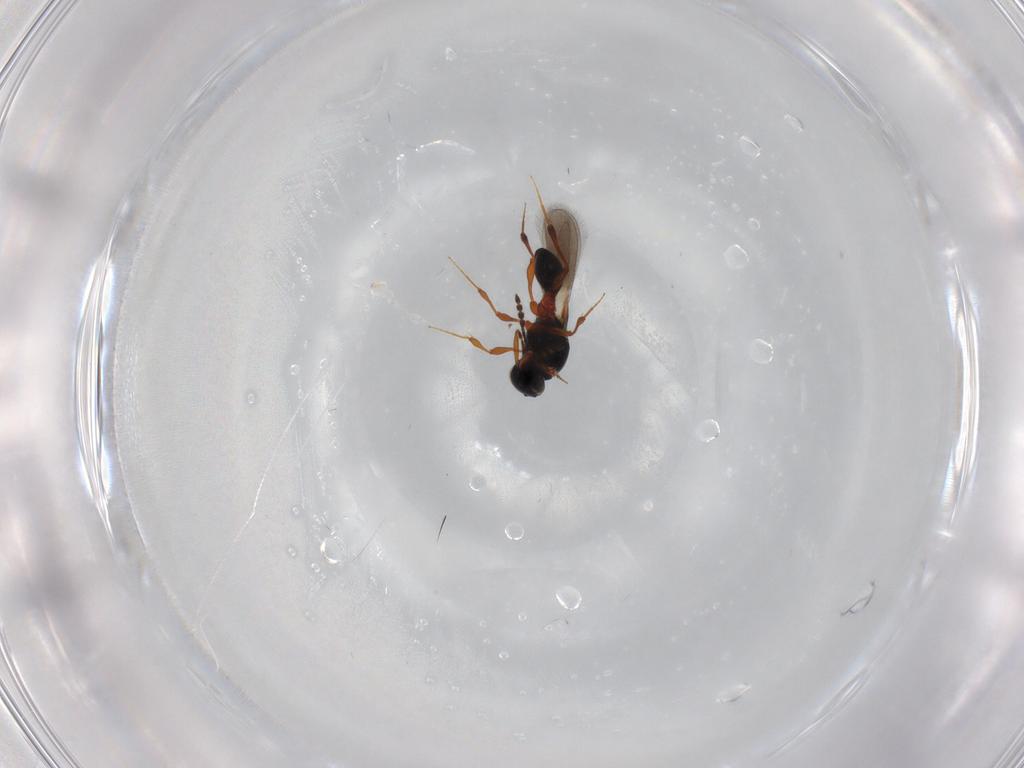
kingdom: Animalia
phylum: Arthropoda
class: Insecta
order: Hymenoptera
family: Platygastridae
